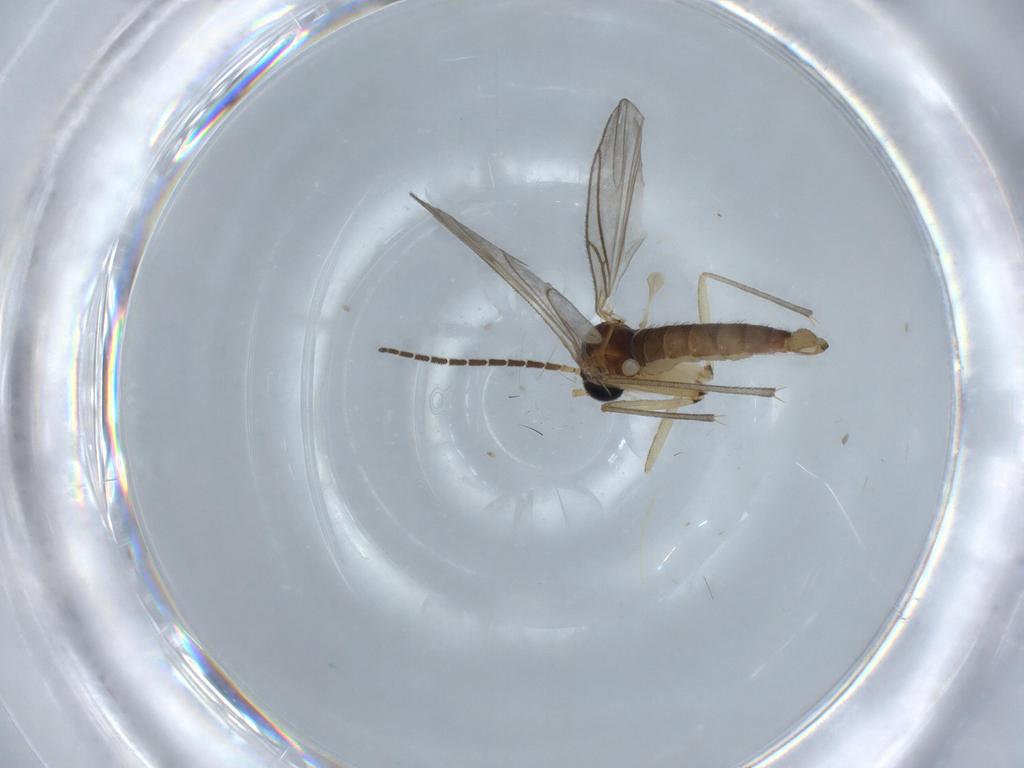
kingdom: Animalia
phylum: Arthropoda
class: Insecta
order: Diptera
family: Sciaridae
